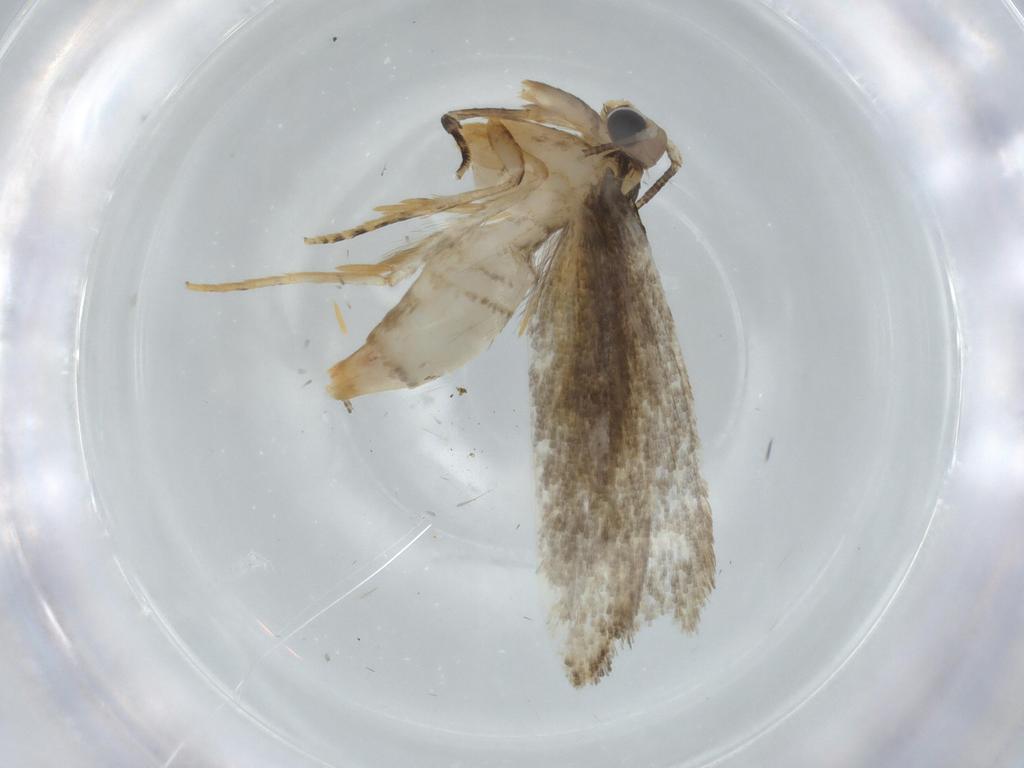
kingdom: Animalia
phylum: Arthropoda
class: Insecta
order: Lepidoptera
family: Tineidae
